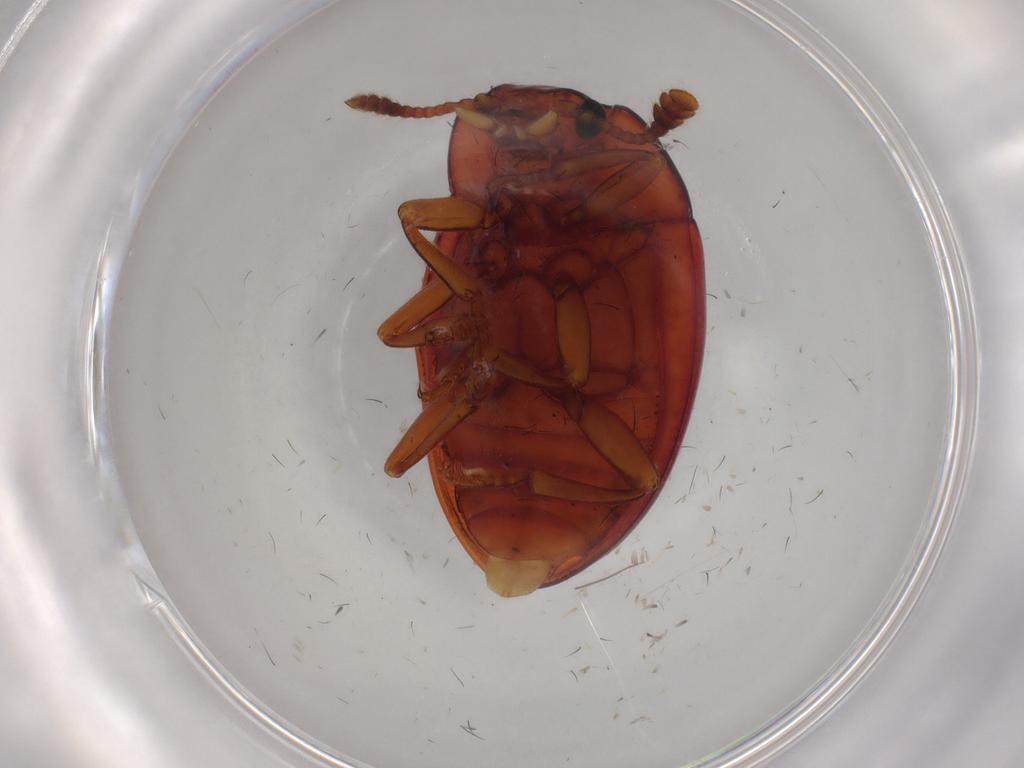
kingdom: Animalia
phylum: Arthropoda
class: Insecta
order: Coleoptera
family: Erotylidae
